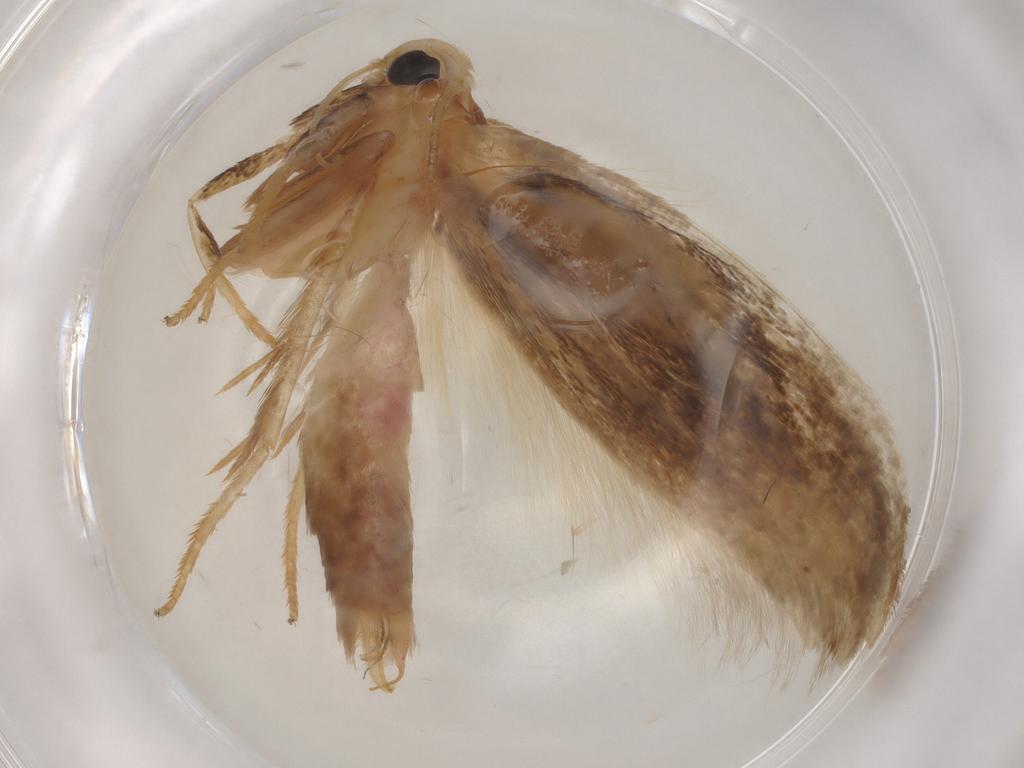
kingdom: Animalia
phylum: Arthropoda
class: Insecta
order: Lepidoptera
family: Geometridae
